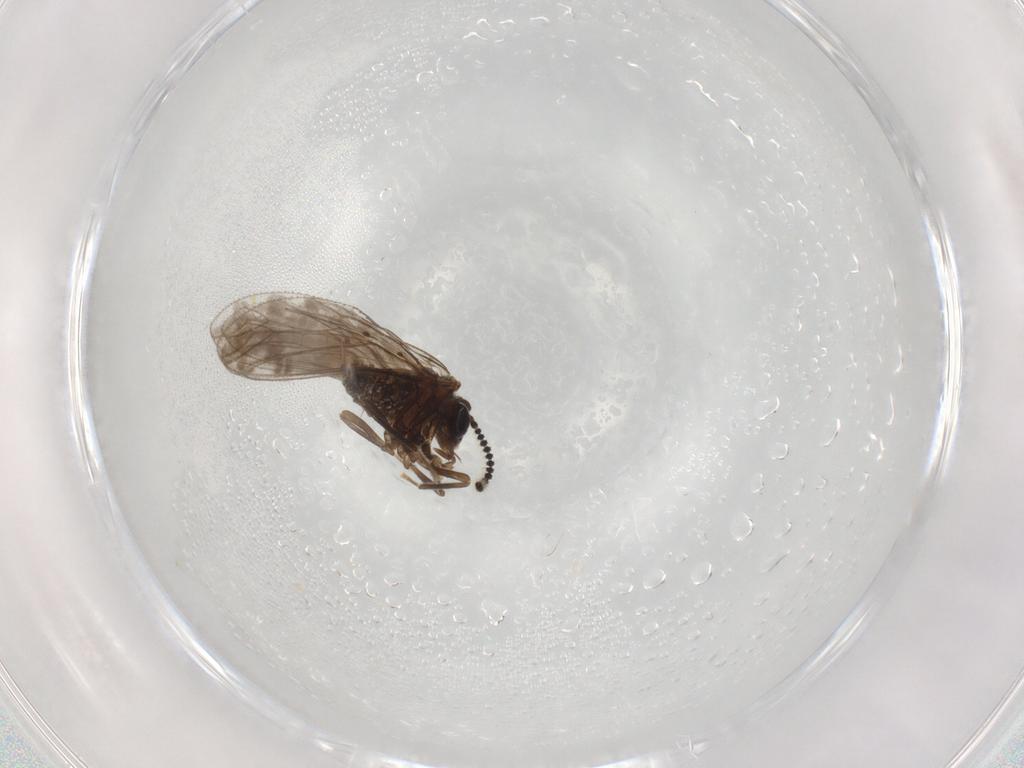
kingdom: Animalia
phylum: Arthropoda
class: Insecta
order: Neuroptera
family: Coniopterygidae
